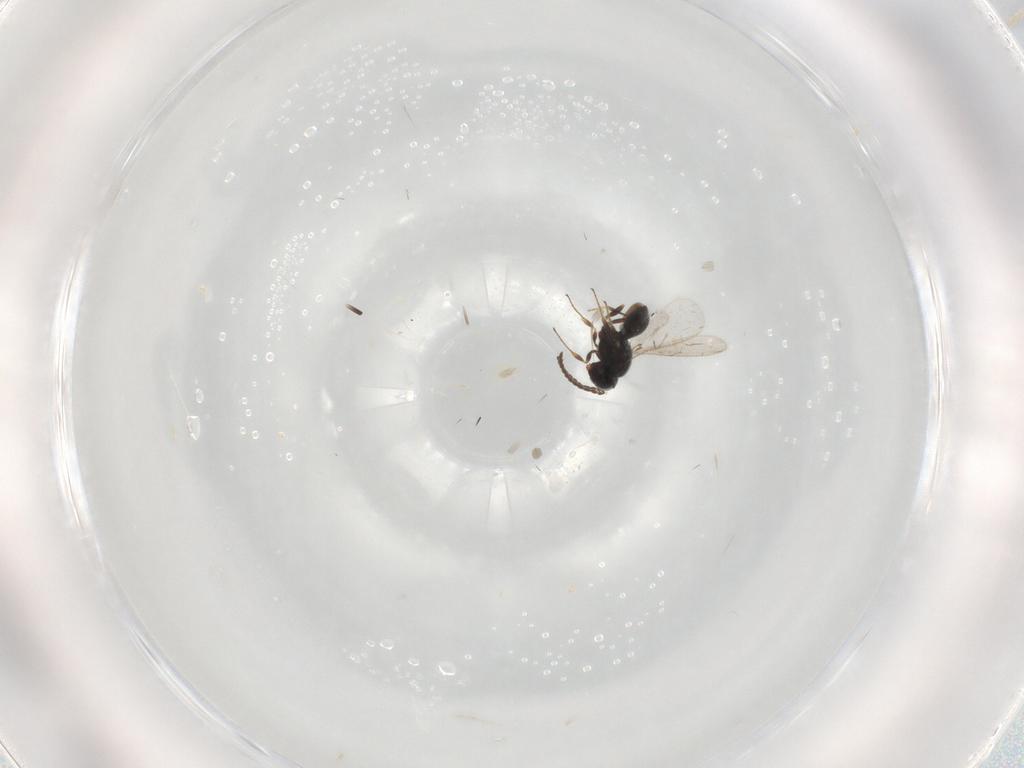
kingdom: Animalia
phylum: Arthropoda
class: Insecta
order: Hymenoptera
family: Scelionidae
